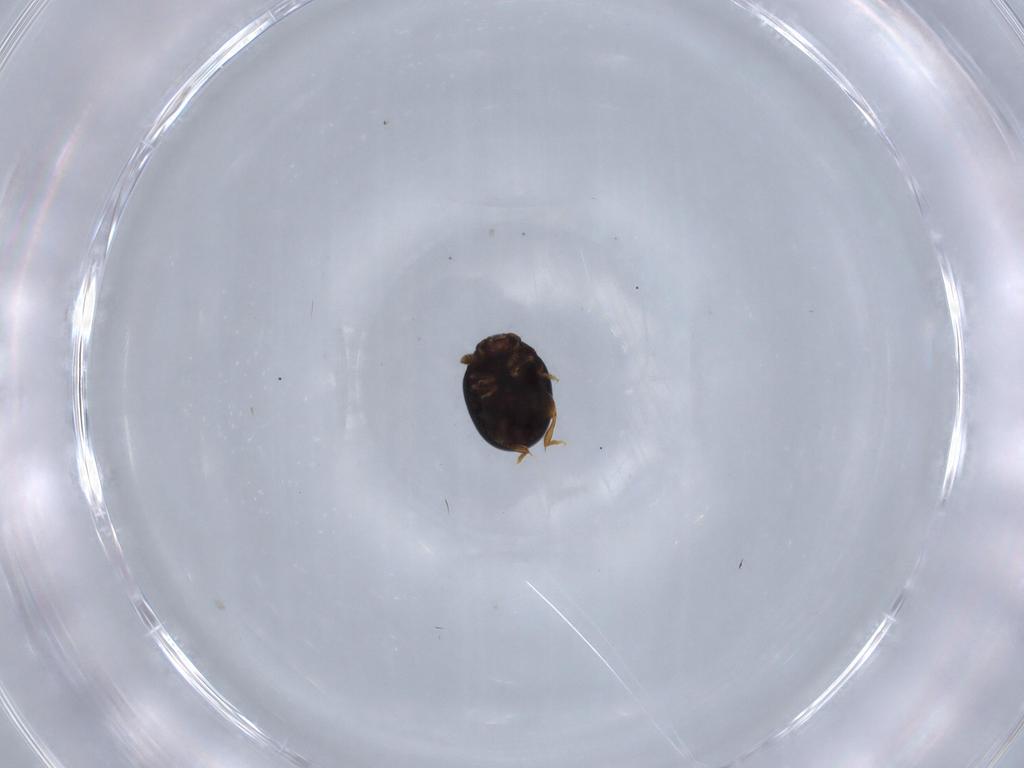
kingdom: Animalia
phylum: Arthropoda
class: Insecta
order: Coleoptera
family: Chrysomelidae
